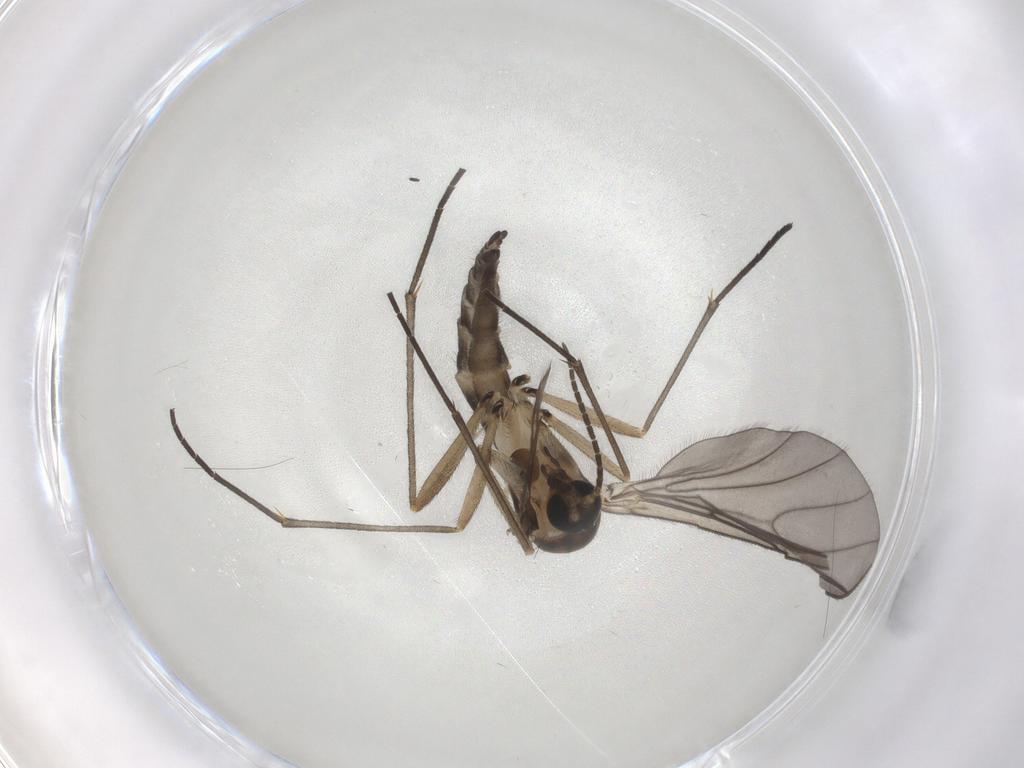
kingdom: Animalia
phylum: Arthropoda
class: Insecta
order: Diptera
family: Sciaridae
